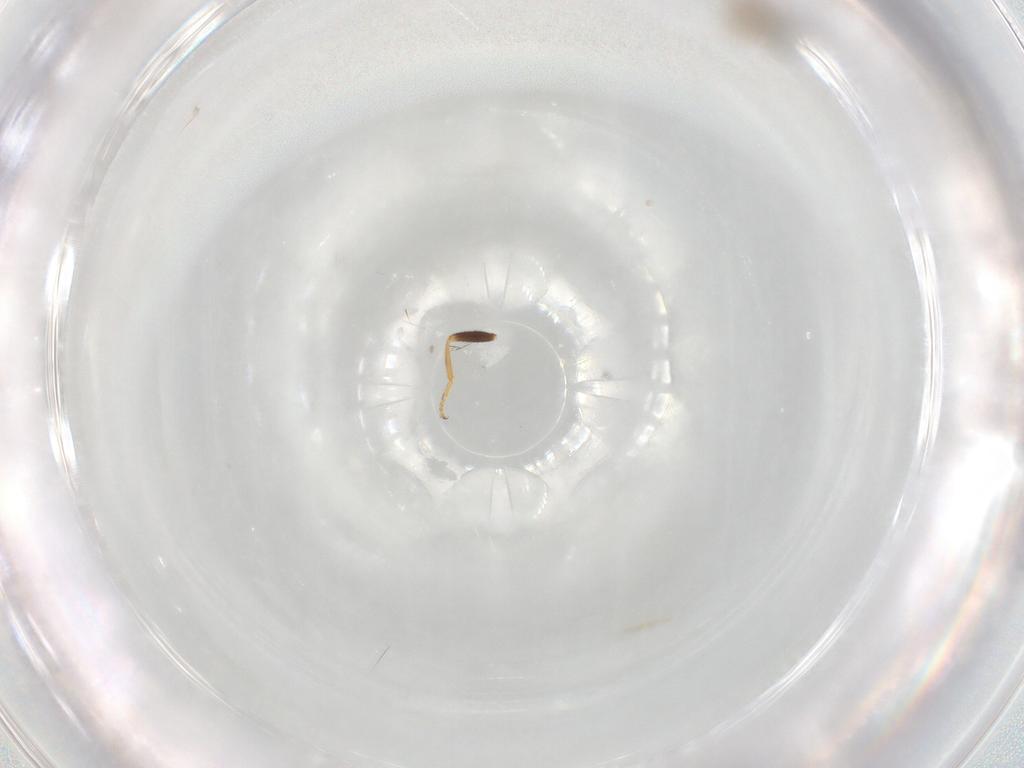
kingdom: Animalia
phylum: Arthropoda
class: Insecta
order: Diptera
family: Cecidomyiidae
